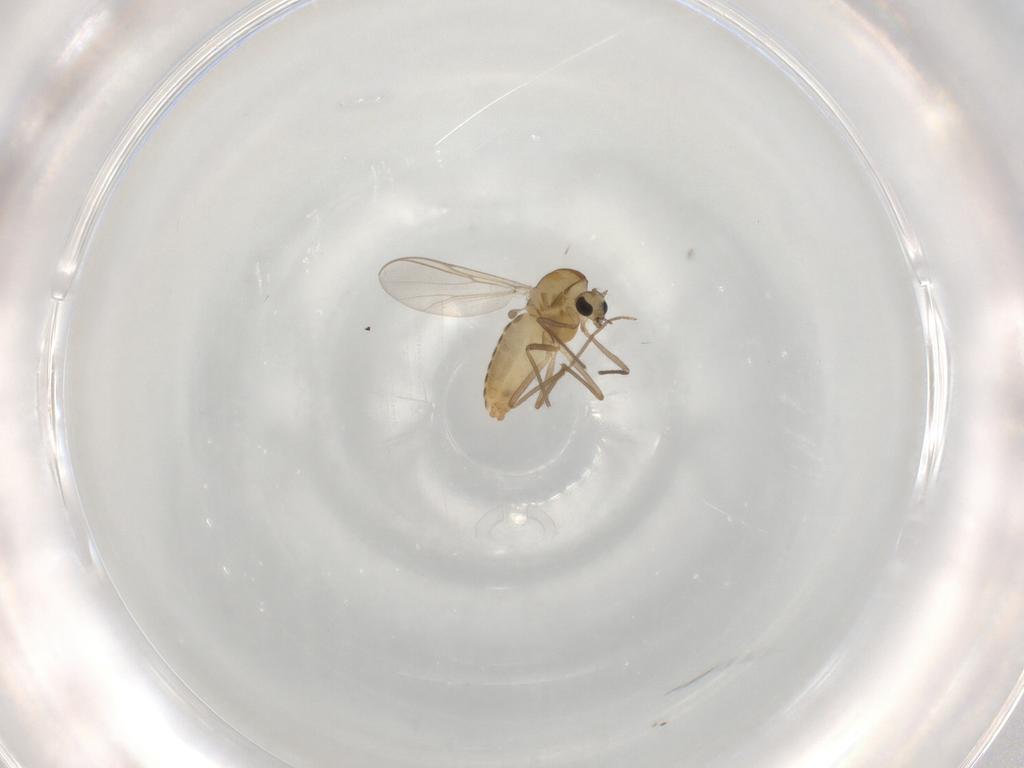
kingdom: Animalia
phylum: Arthropoda
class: Insecta
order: Diptera
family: Chironomidae
